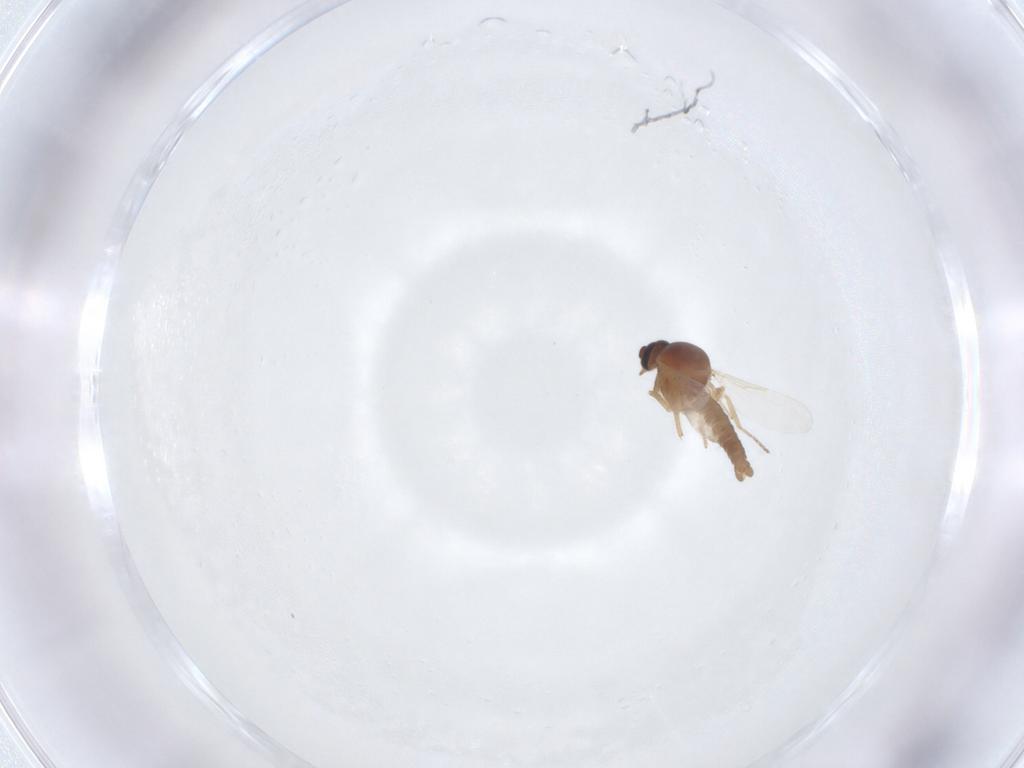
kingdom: Animalia
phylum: Arthropoda
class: Insecta
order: Diptera
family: Ceratopogonidae
